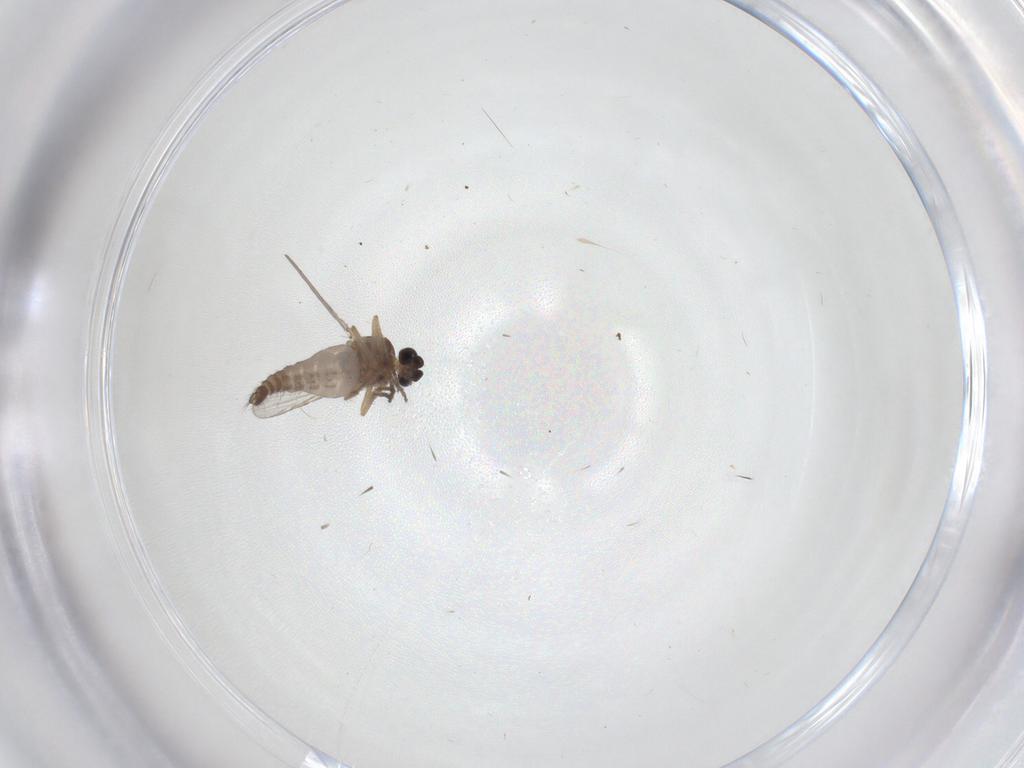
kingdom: Animalia
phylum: Arthropoda
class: Insecta
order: Diptera
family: Ceratopogonidae
